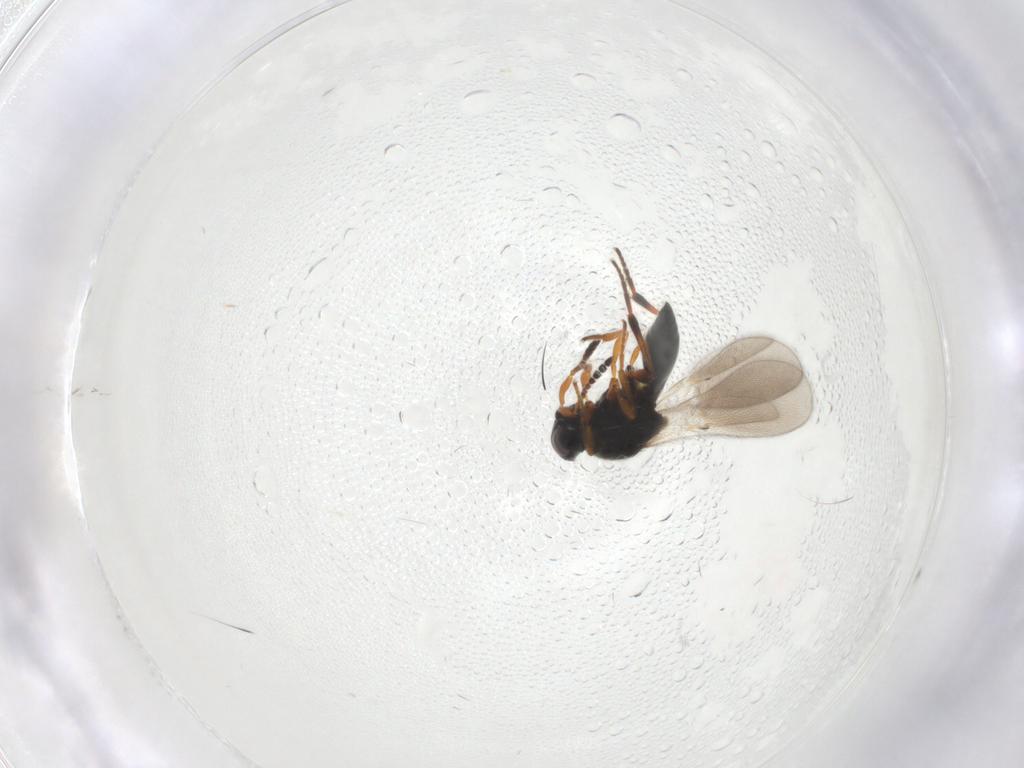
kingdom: Animalia
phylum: Arthropoda
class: Insecta
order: Hymenoptera
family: Platygastridae
